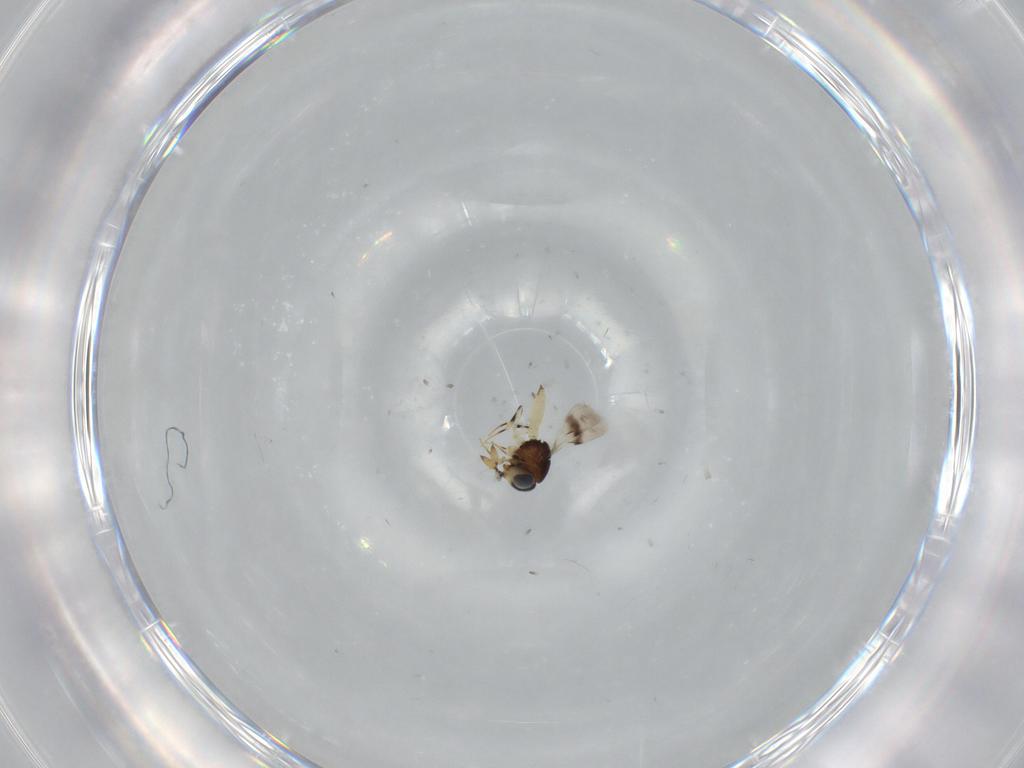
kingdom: Animalia
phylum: Arthropoda
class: Insecta
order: Hymenoptera
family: Scelionidae
